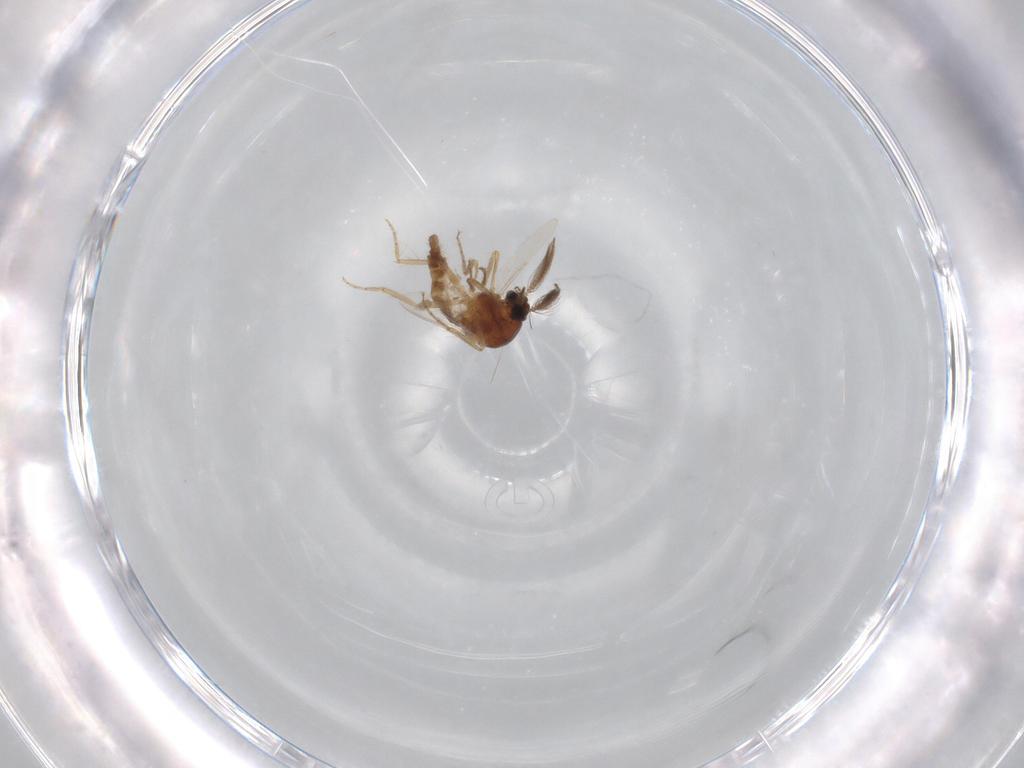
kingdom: Animalia
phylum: Arthropoda
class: Insecta
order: Diptera
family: Ceratopogonidae
